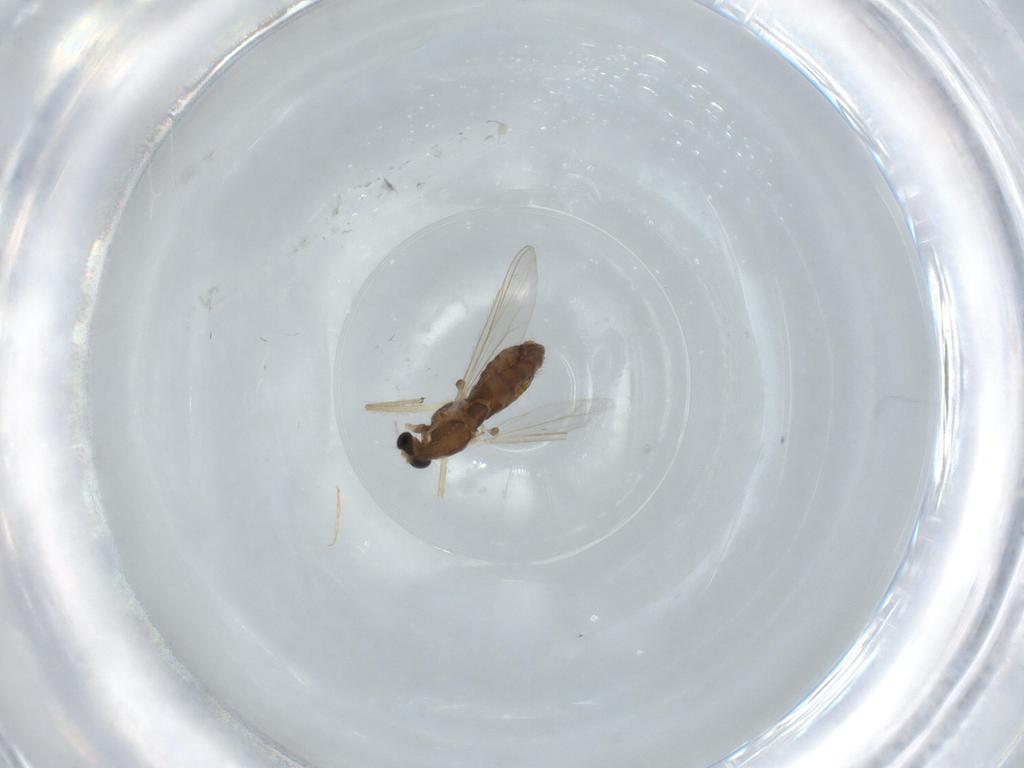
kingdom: Animalia
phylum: Arthropoda
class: Insecta
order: Diptera
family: Chironomidae
